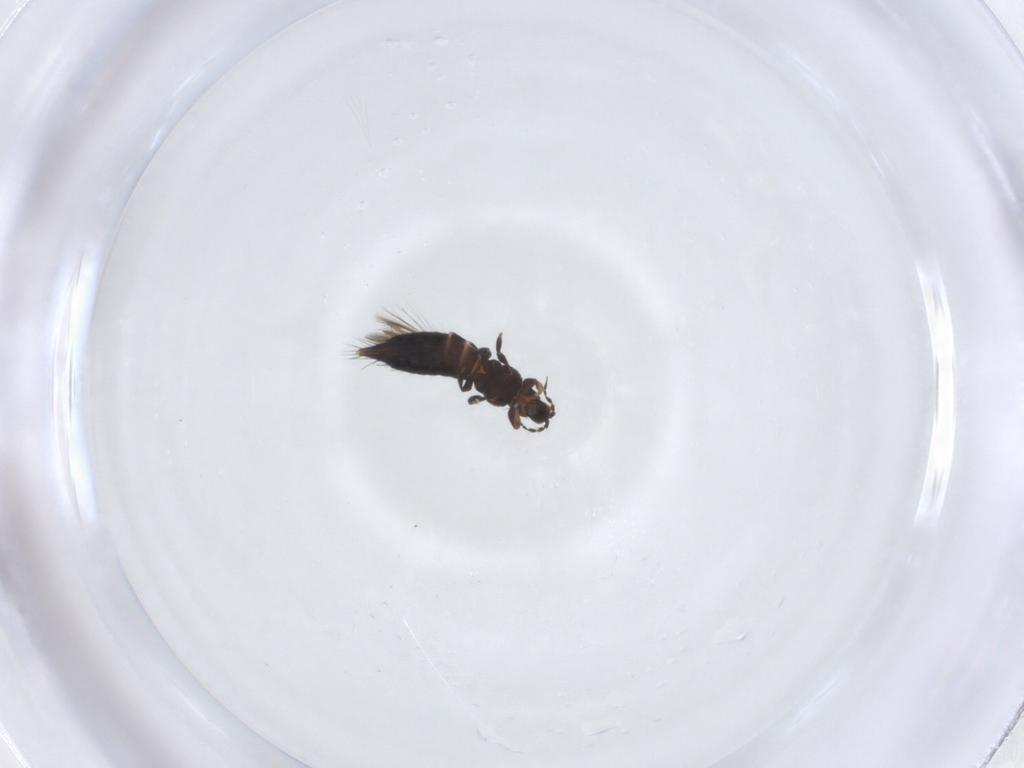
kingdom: Animalia
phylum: Arthropoda
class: Insecta
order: Thysanoptera
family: Thripidae
